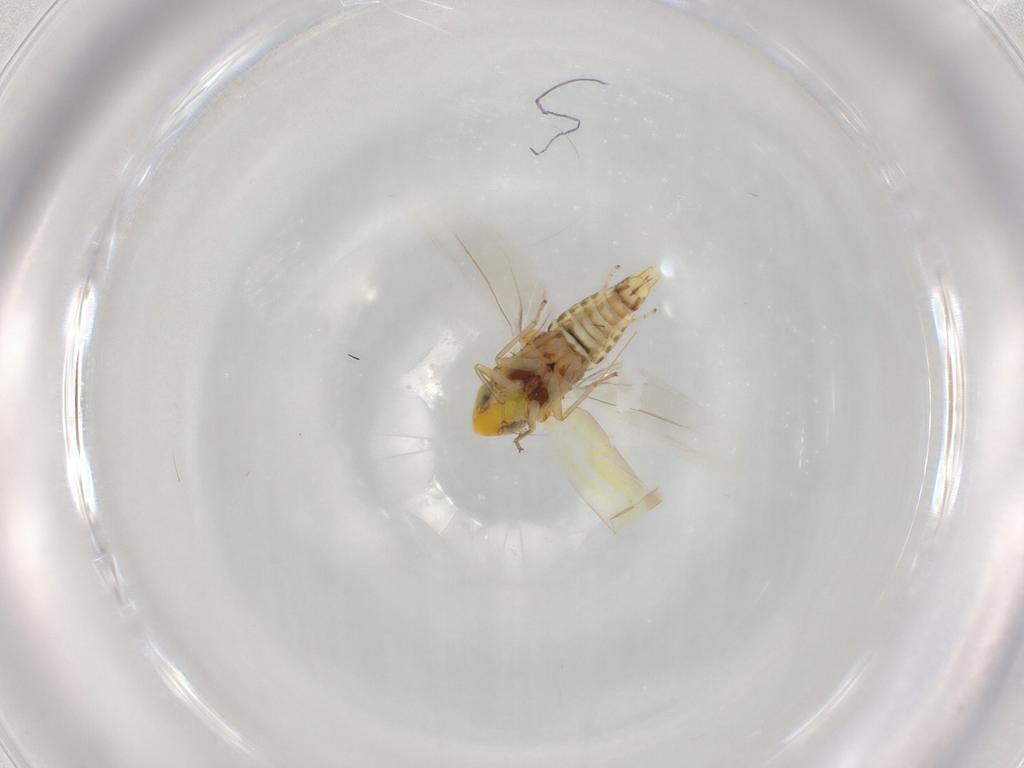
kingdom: Animalia
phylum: Arthropoda
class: Insecta
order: Hemiptera
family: Cicadellidae
